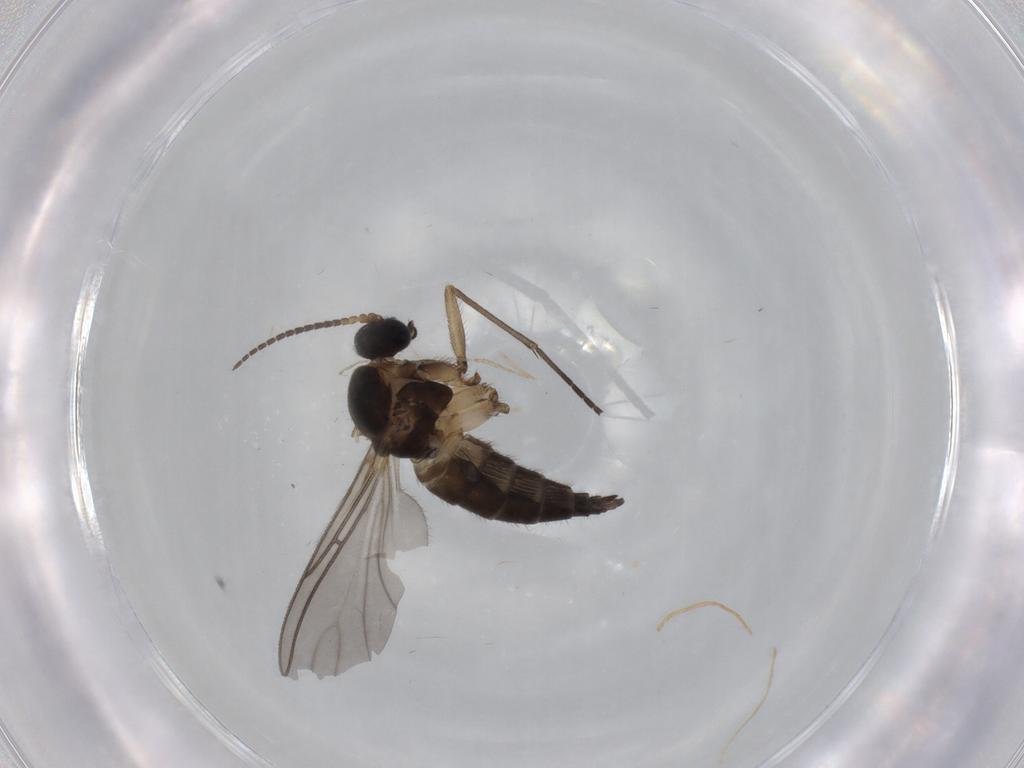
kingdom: Animalia
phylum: Arthropoda
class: Insecta
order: Diptera
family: Sciaridae
